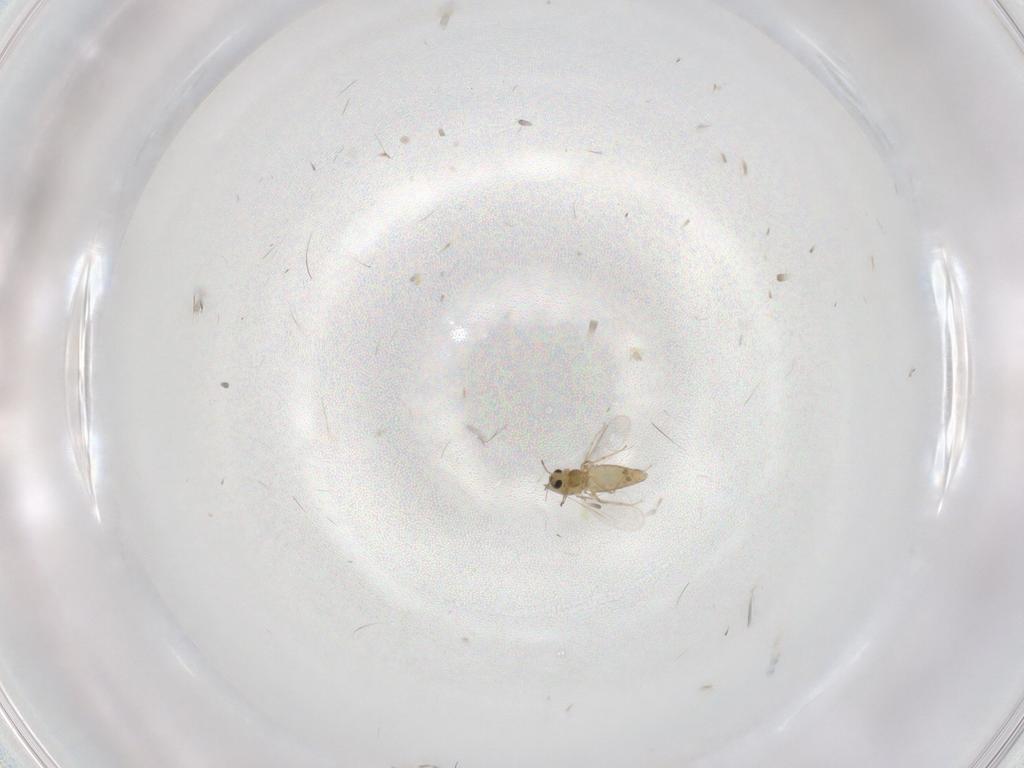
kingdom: Animalia
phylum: Arthropoda
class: Insecta
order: Diptera
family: Chironomidae
